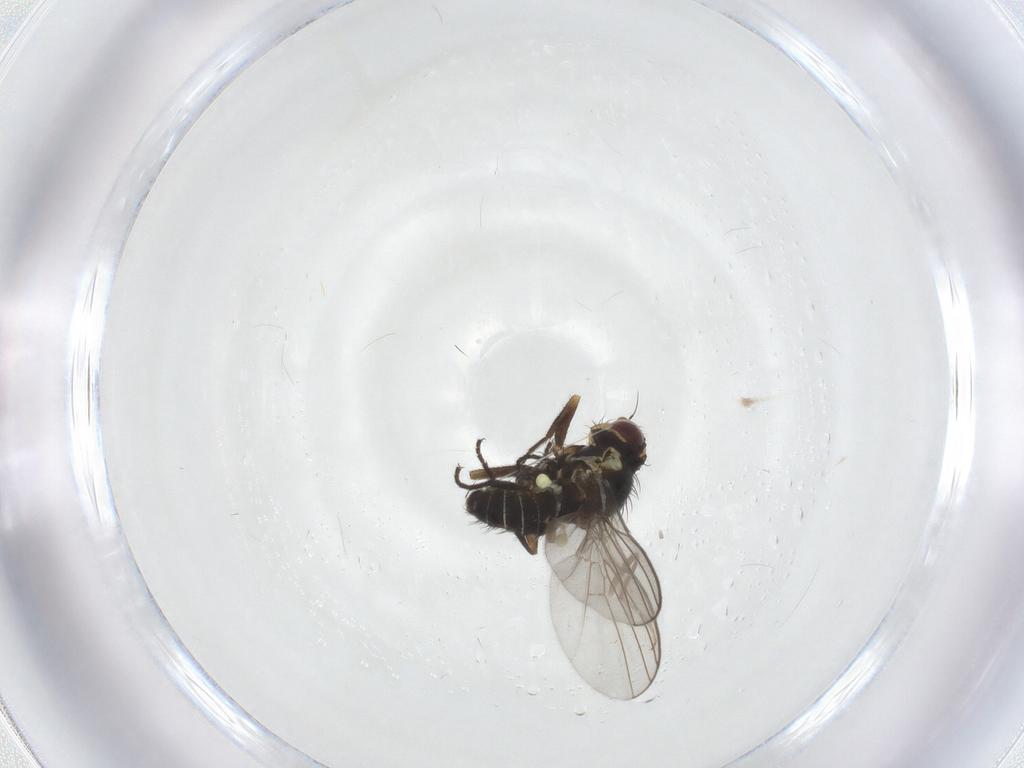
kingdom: Animalia
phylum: Arthropoda
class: Insecta
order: Diptera
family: Agromyzidae
